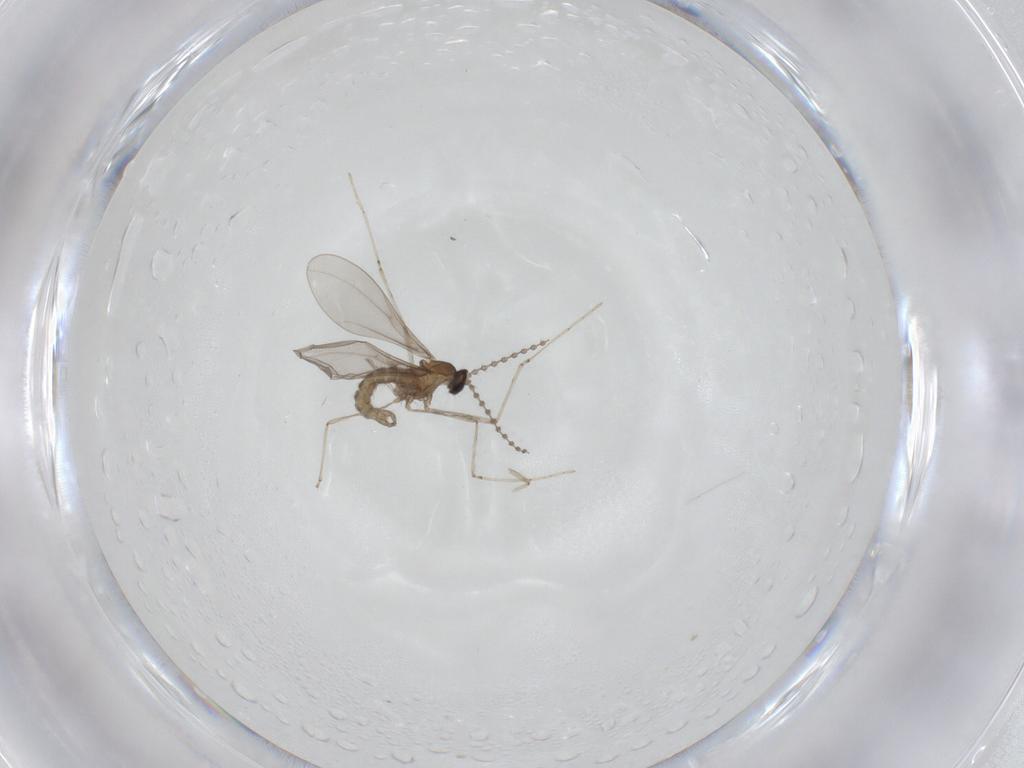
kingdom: Animalia
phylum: Arthropoda
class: Insecta
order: Diptera
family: Cecidomyiidae
